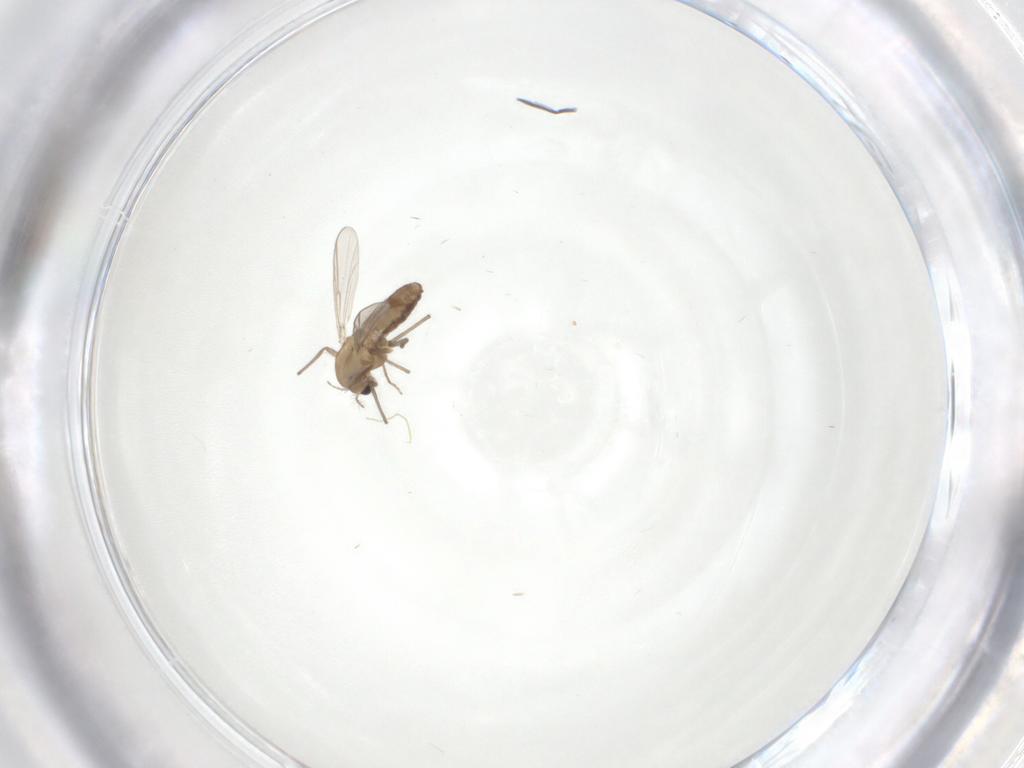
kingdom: Animalia
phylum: Arthropoda
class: Insecta
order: Diptera
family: Chironomidae
